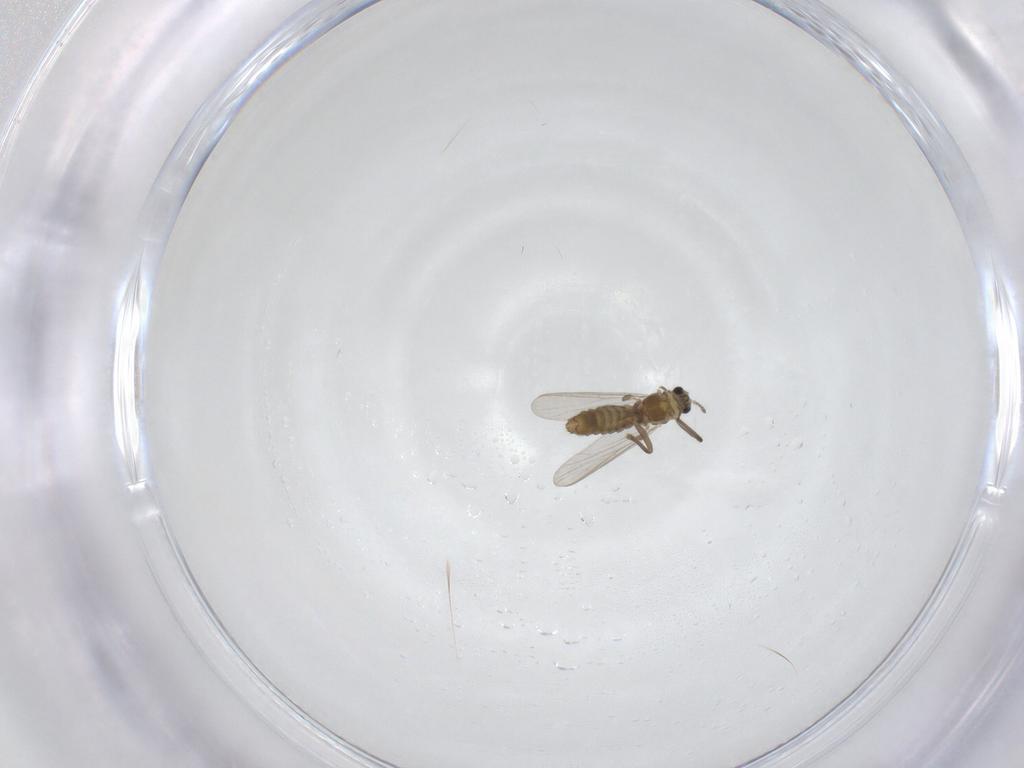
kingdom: Animalia
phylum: Arthropoda
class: Insecta
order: Diptera
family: Chironomidae
